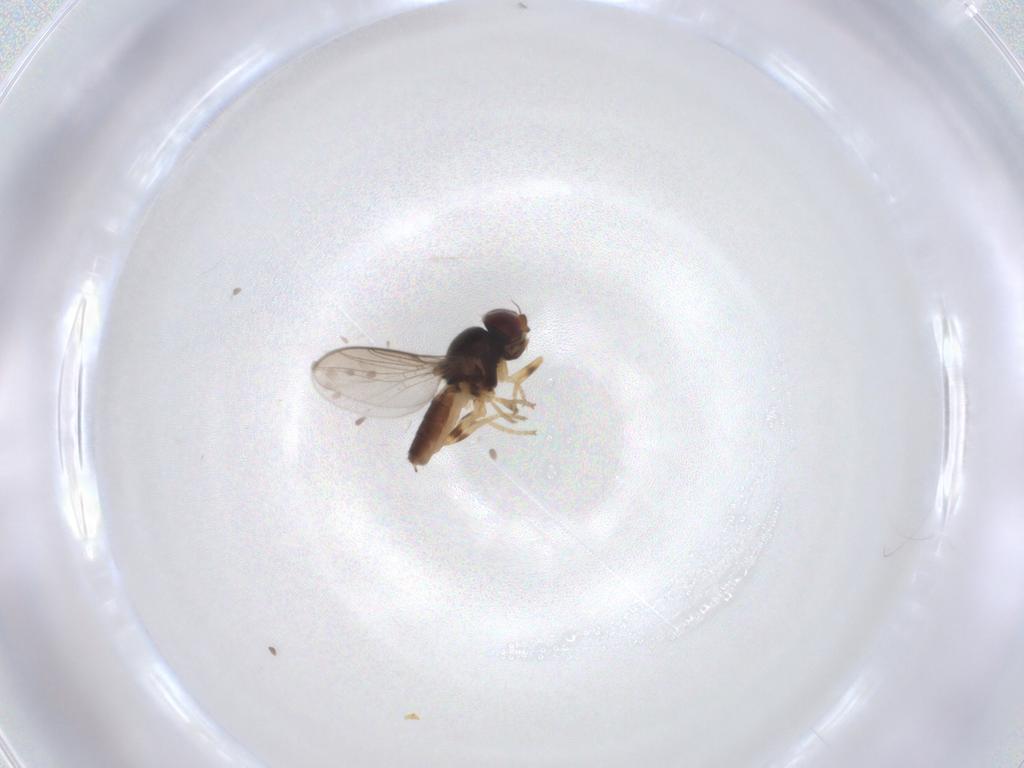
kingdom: Animalia
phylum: Arthropoda
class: Insecta
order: Diptera
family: Chloropidae
